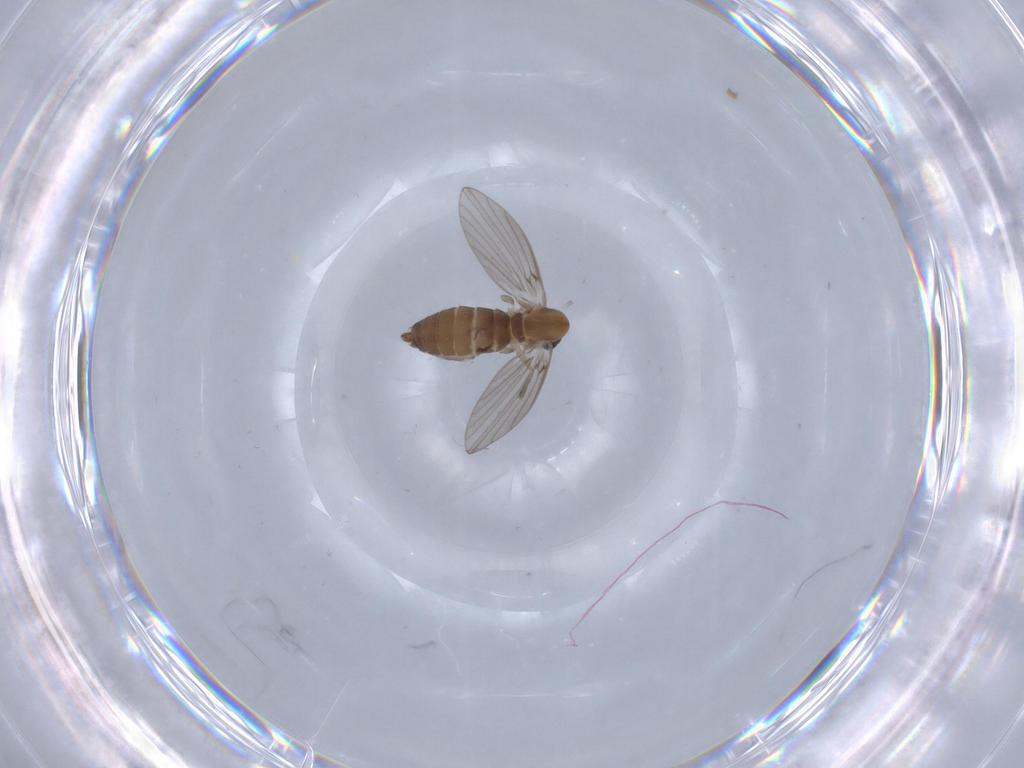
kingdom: Animalia
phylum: Arthropoda
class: Insecta
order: Diptera
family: Psychodidae
